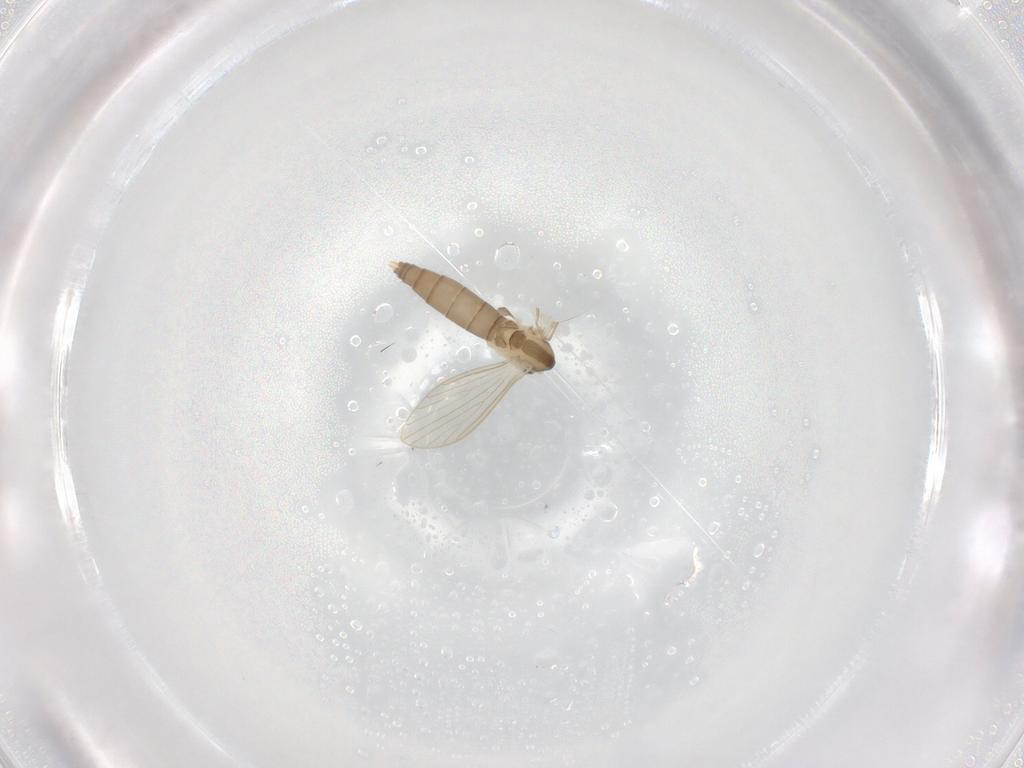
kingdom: Animalia
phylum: Arthropoda
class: Insecta
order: Diptera
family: Psychodidae
